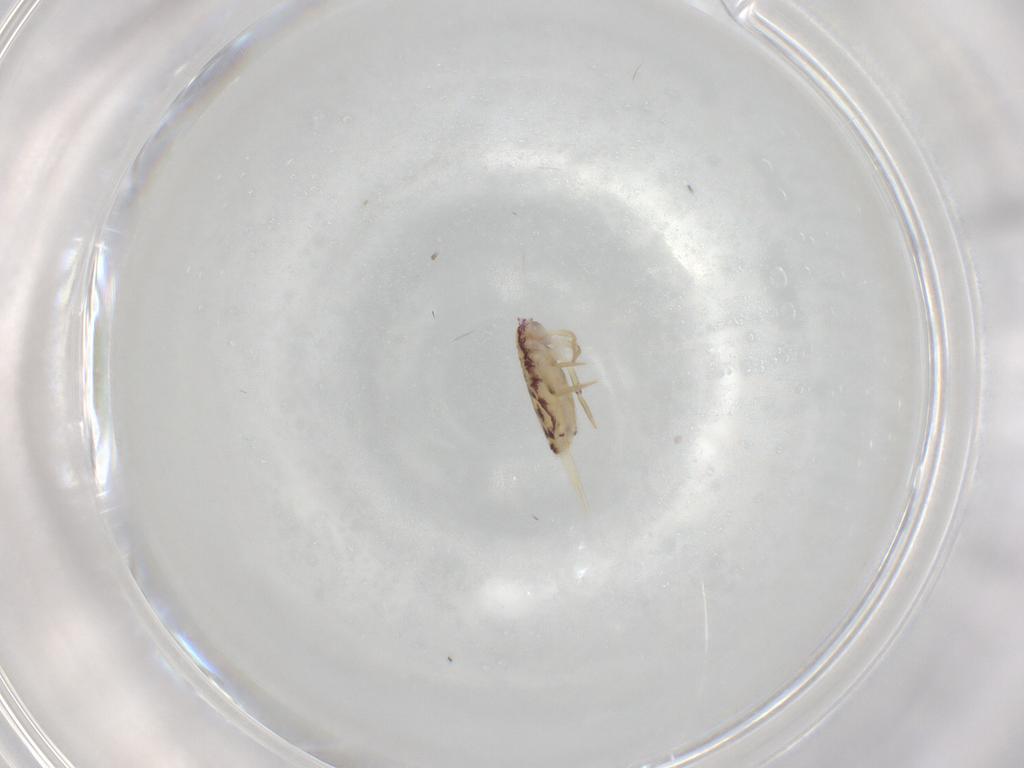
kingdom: Animalia
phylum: Arthropoda
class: Collembola
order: Entomobryomorpha
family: Entomobryidae
